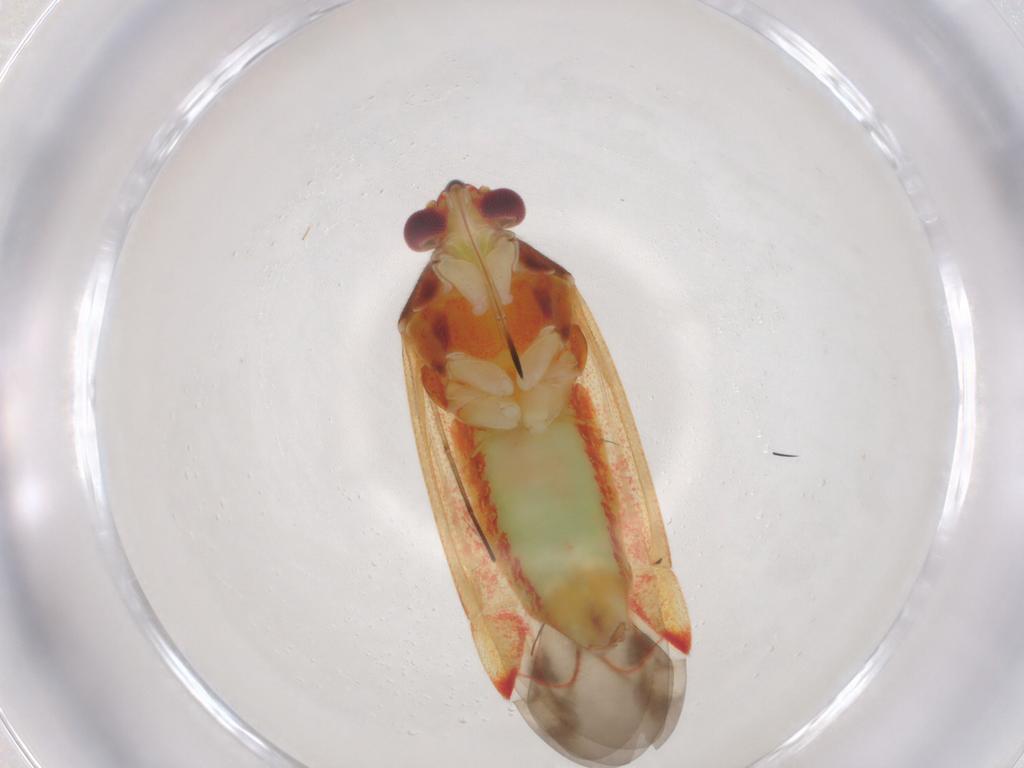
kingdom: Animalia
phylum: Arthropoda
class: Insecta
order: Hemiptera
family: Miridae
